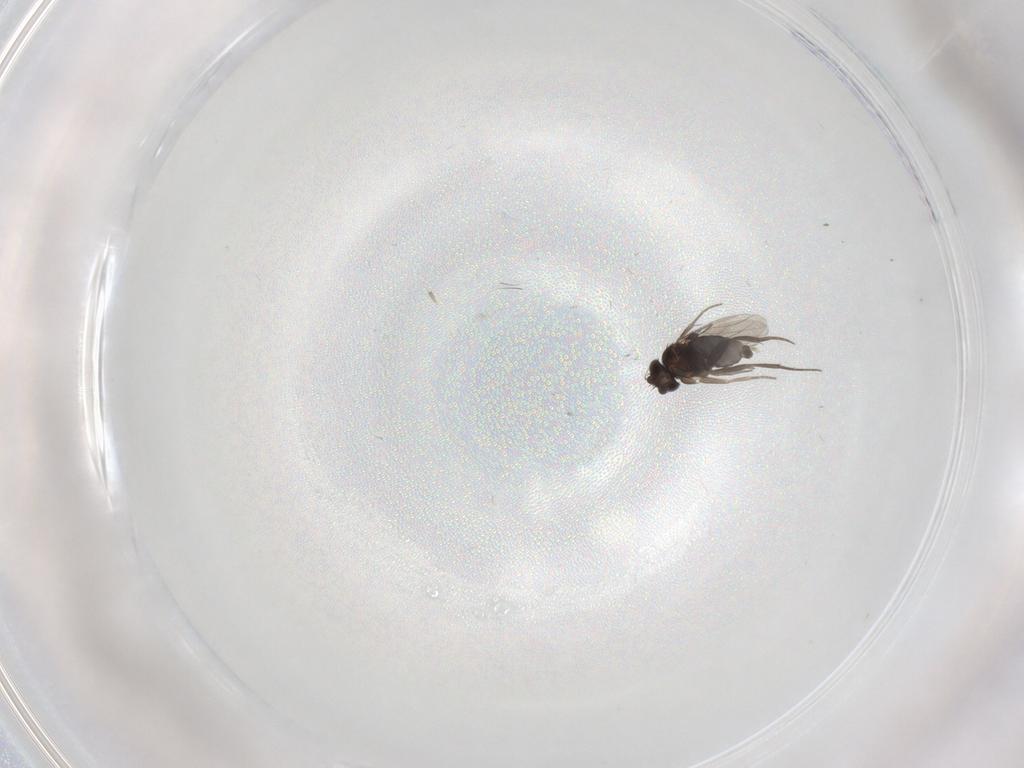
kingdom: Animalia
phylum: Arthropoda
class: Insecta
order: Diptera
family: Chironomidae
